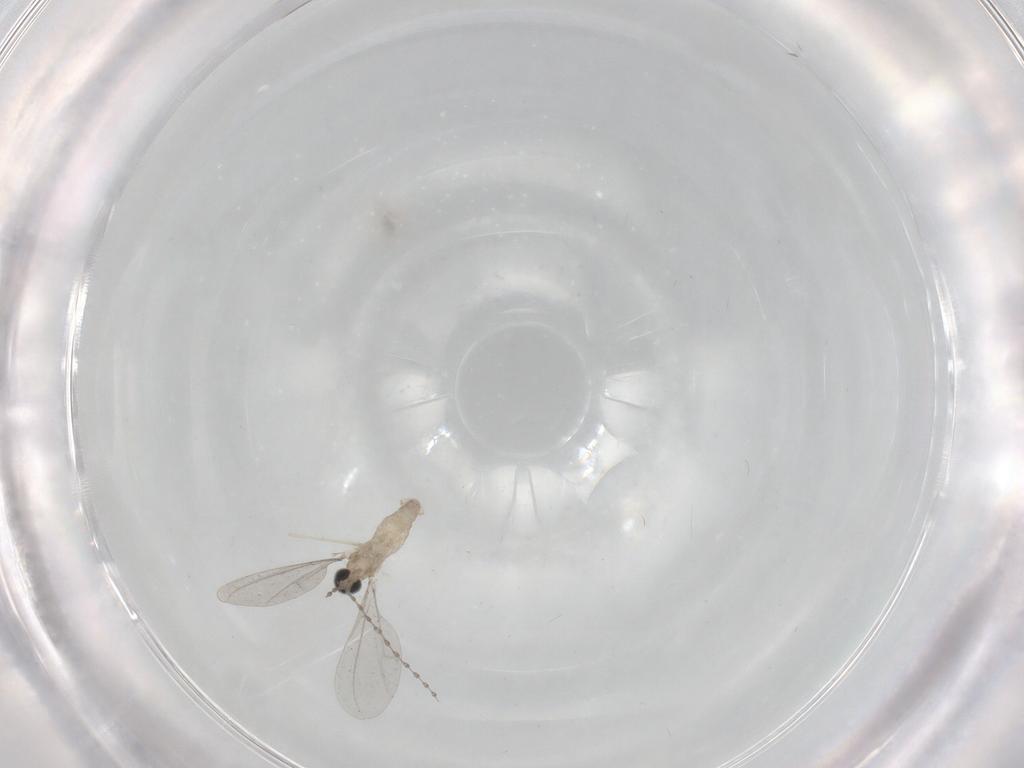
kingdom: Animalia
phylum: Arthropoda
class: Insecta
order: Diptera
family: Cecidomyiidae
